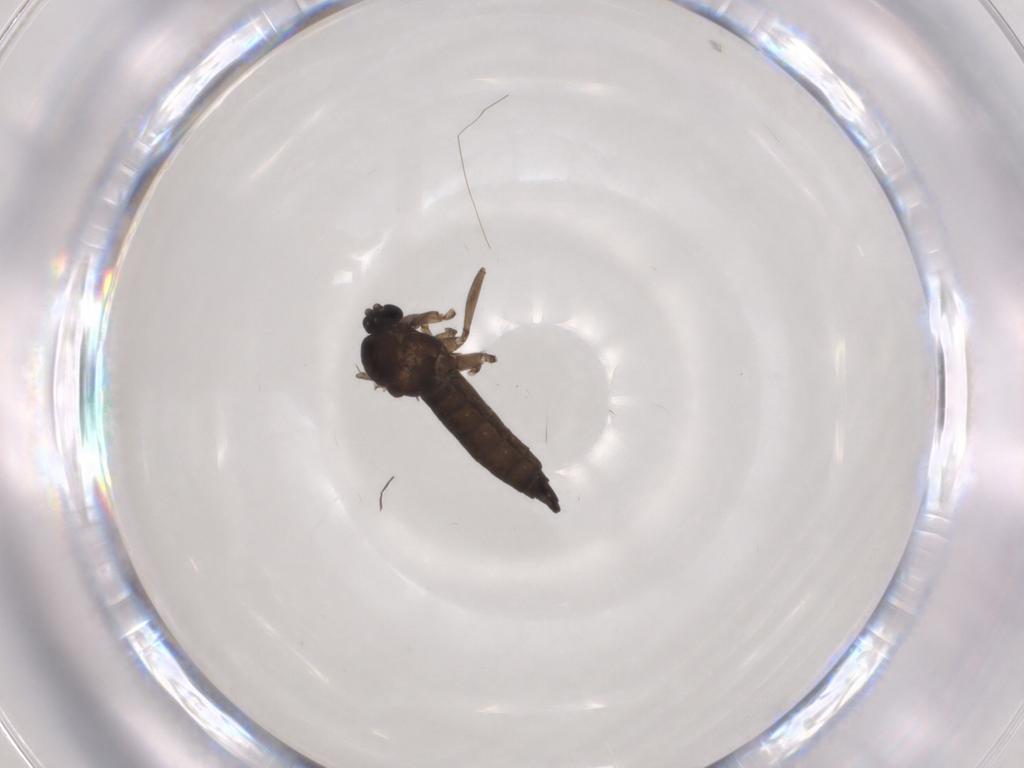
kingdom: Animalia
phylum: Arthropoda
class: Insecta
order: Diptera
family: Sciaridae
